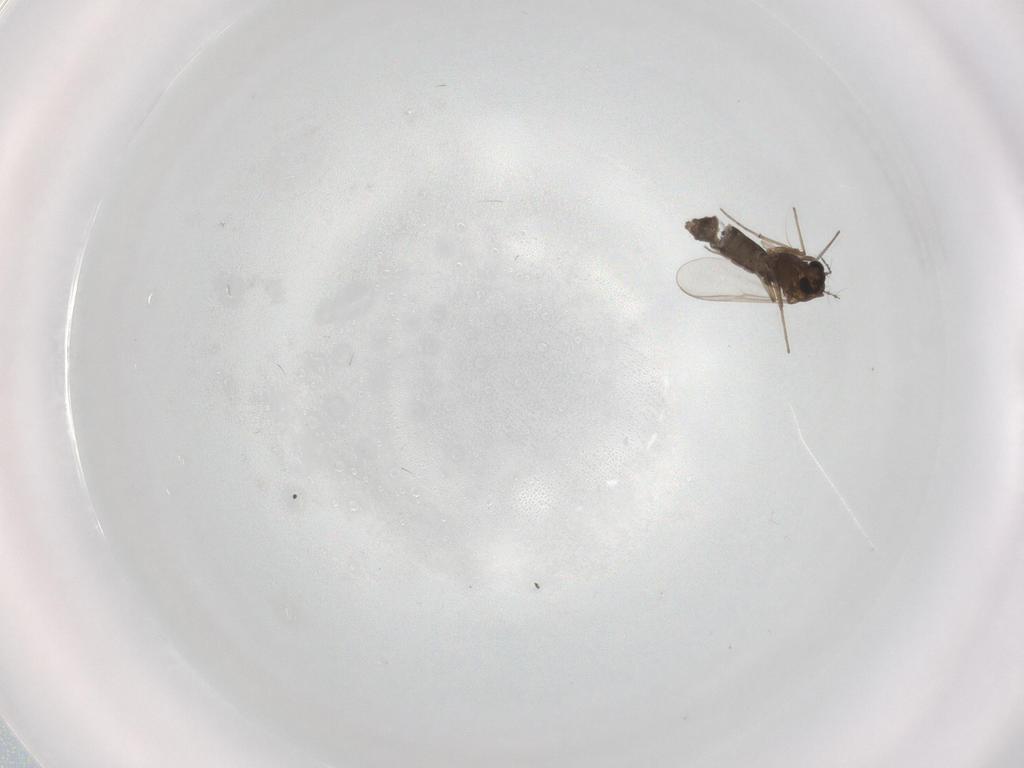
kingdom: Animalia
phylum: Arthropoda
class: Insecta
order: Diptera
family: Chironomidae
